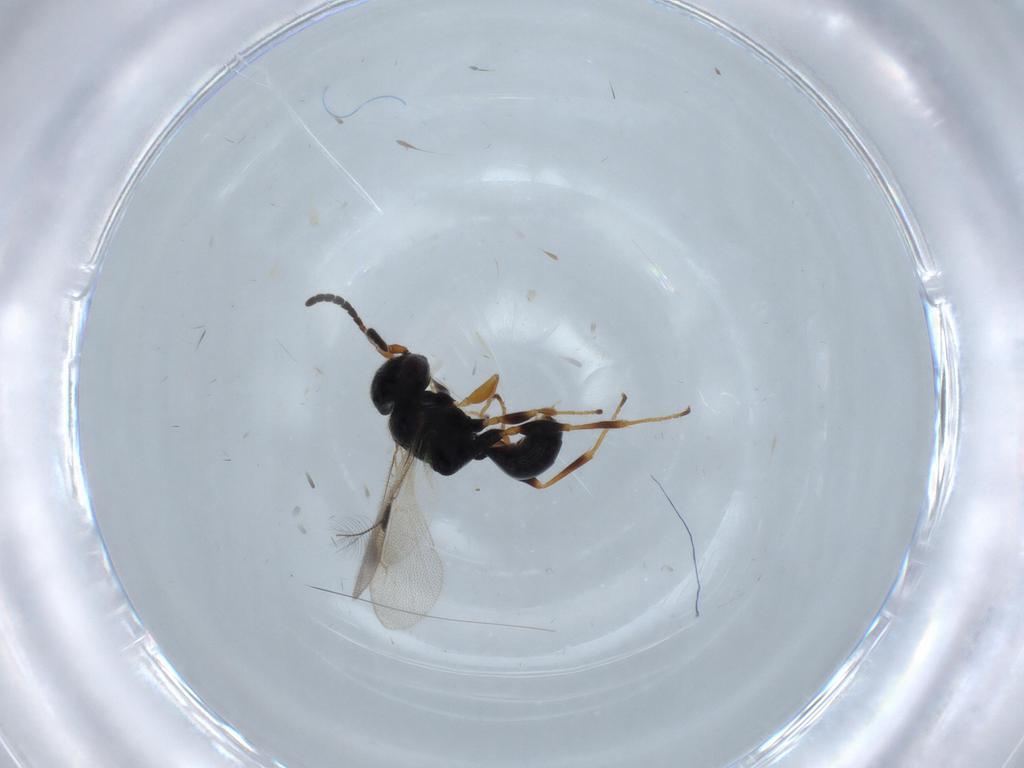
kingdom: Animalia
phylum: Arthropoda
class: Insecta
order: Hymenoptera
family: Dryinidae
